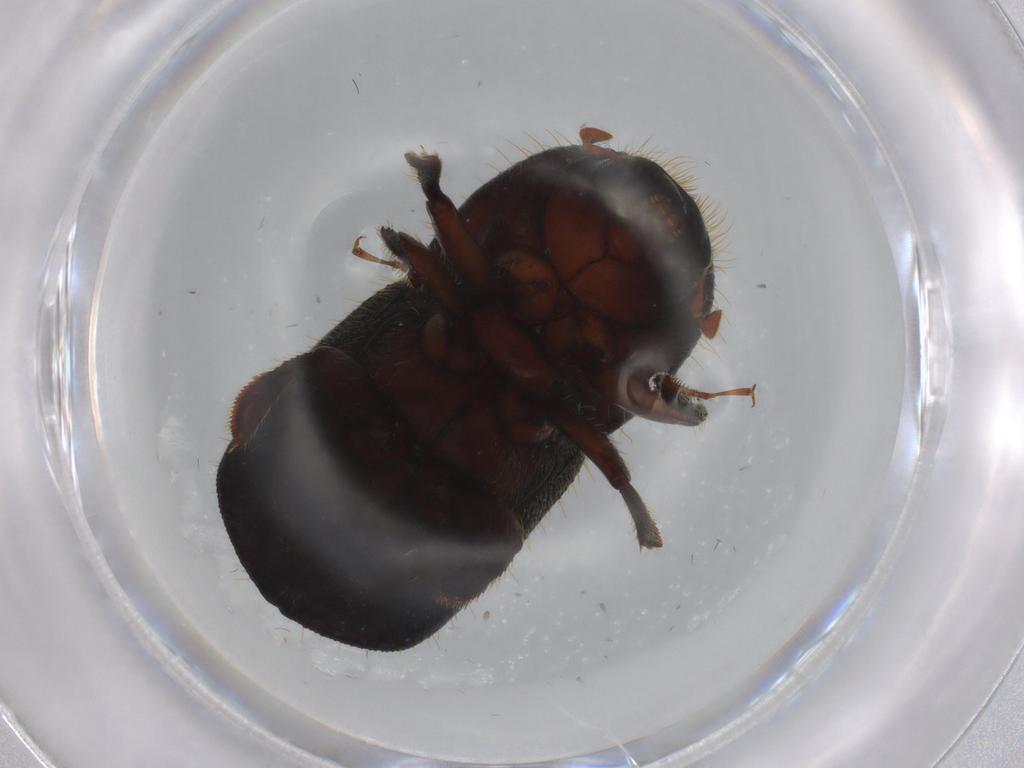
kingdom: Animalia
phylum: Arthropoda
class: Insecta
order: Coleoptera
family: Curculionidae
